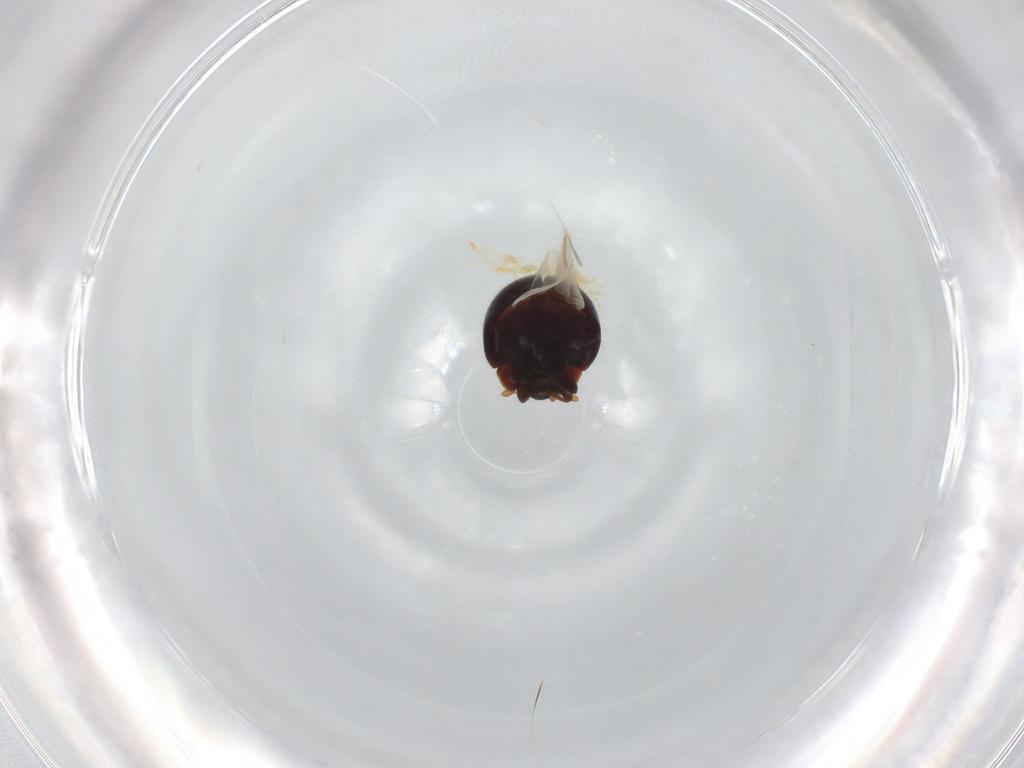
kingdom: Animalia
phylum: Arthropoda
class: Insecta
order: Coleoptera
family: Coccinellidae
